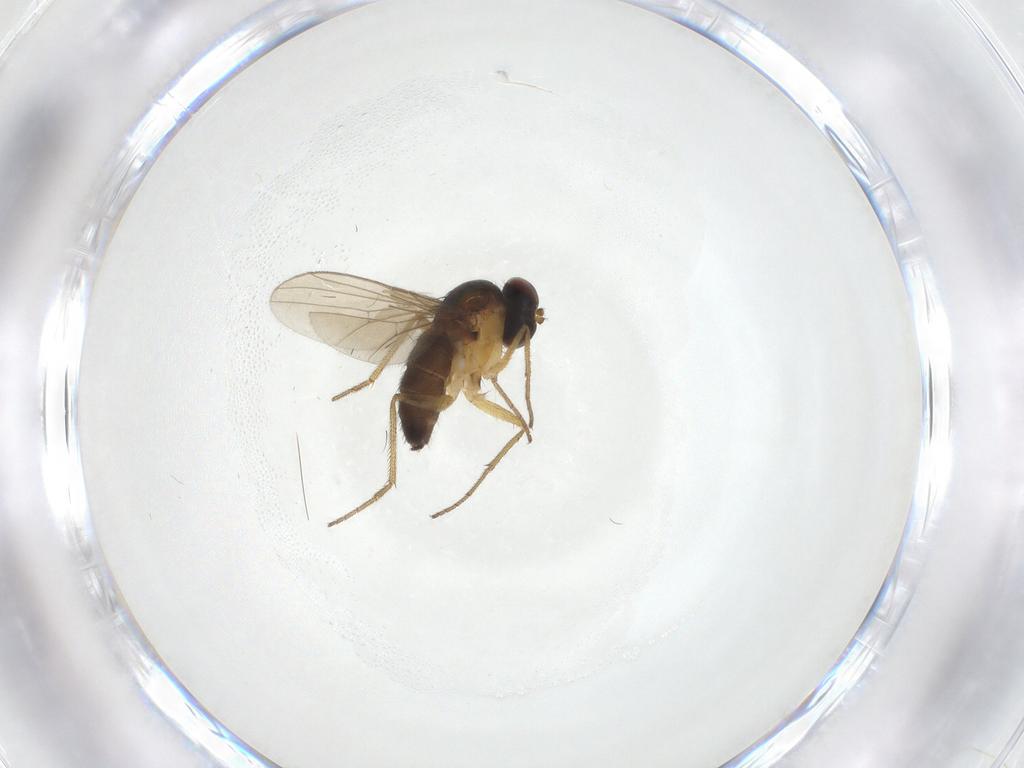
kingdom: Animalia
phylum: Arthropoda
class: Insecta
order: Diptera
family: Dolichopodidae
